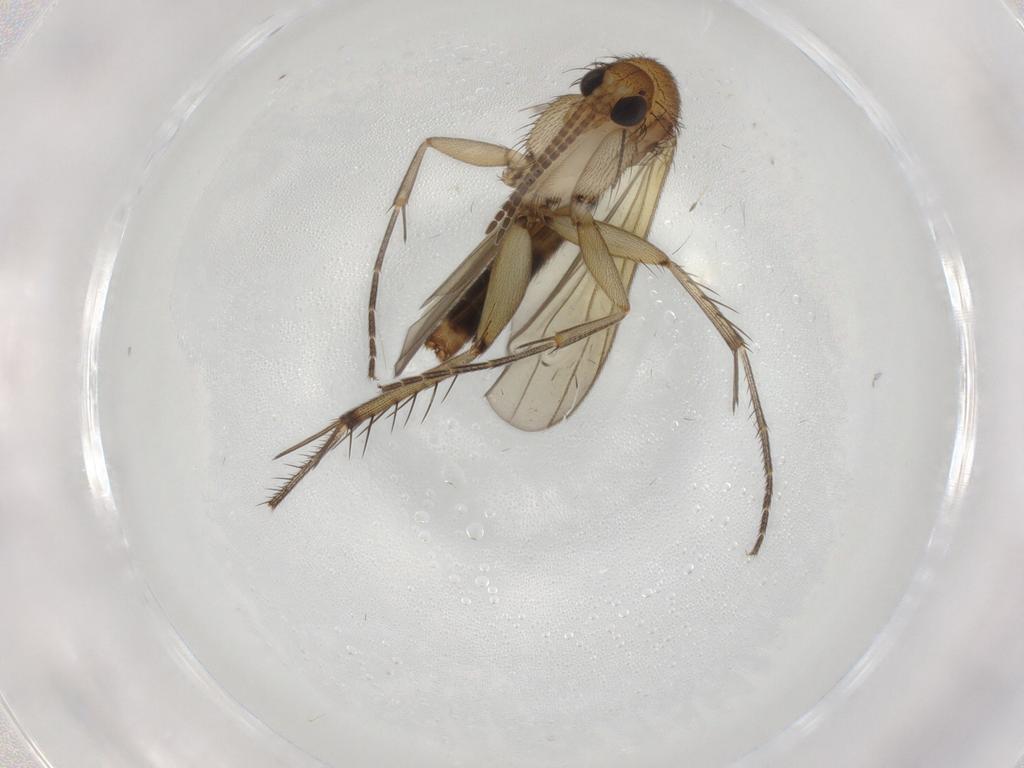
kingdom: Animalia
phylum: Arthropoda
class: Insecta
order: Diptera
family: Sciaridae
